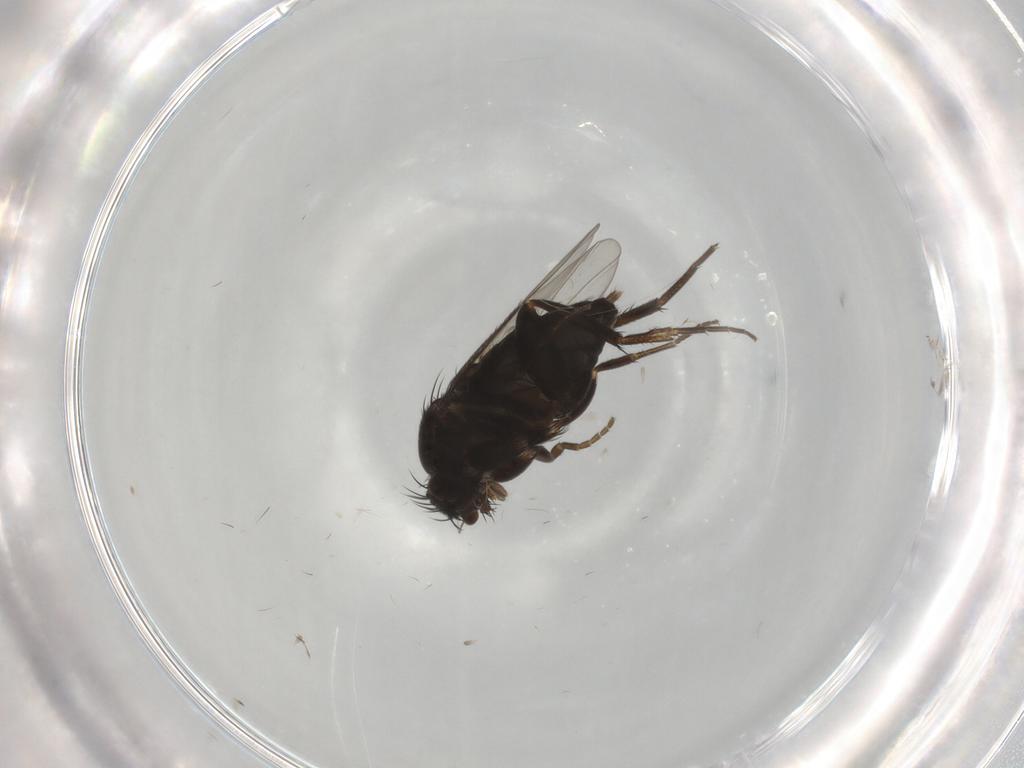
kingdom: Animalia
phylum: Arthropoda
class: Insecta
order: Diptera
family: Phoridae
